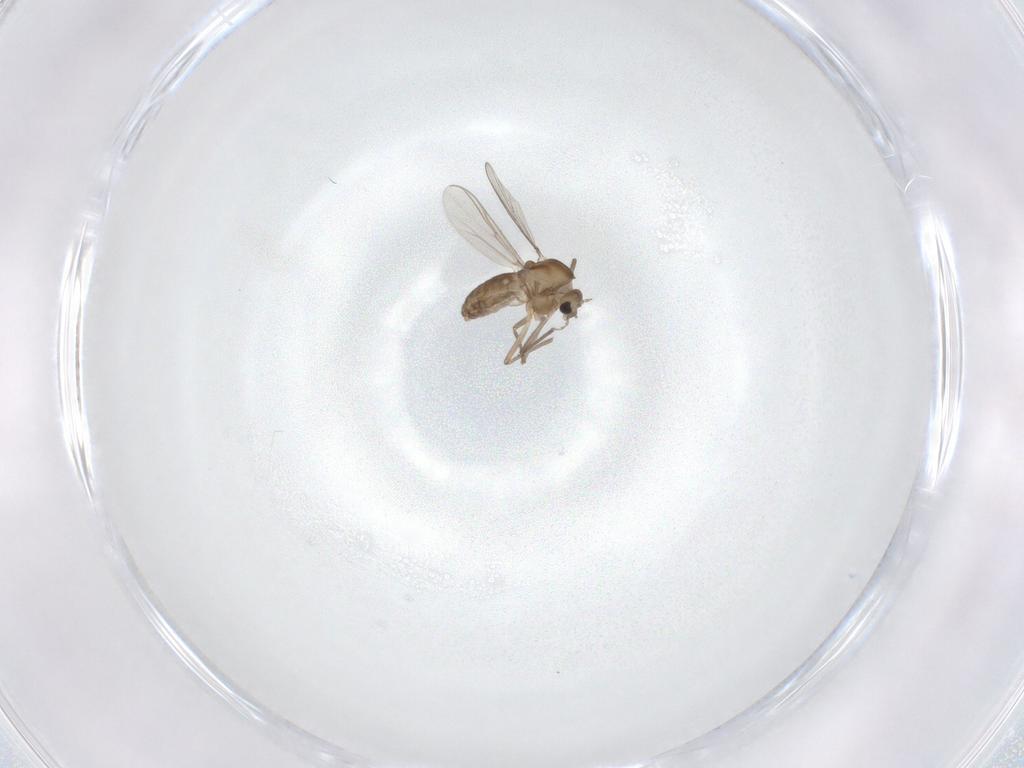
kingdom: Animalia
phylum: Arthropoda
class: Insecta
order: Diptera
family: Chironomidae
